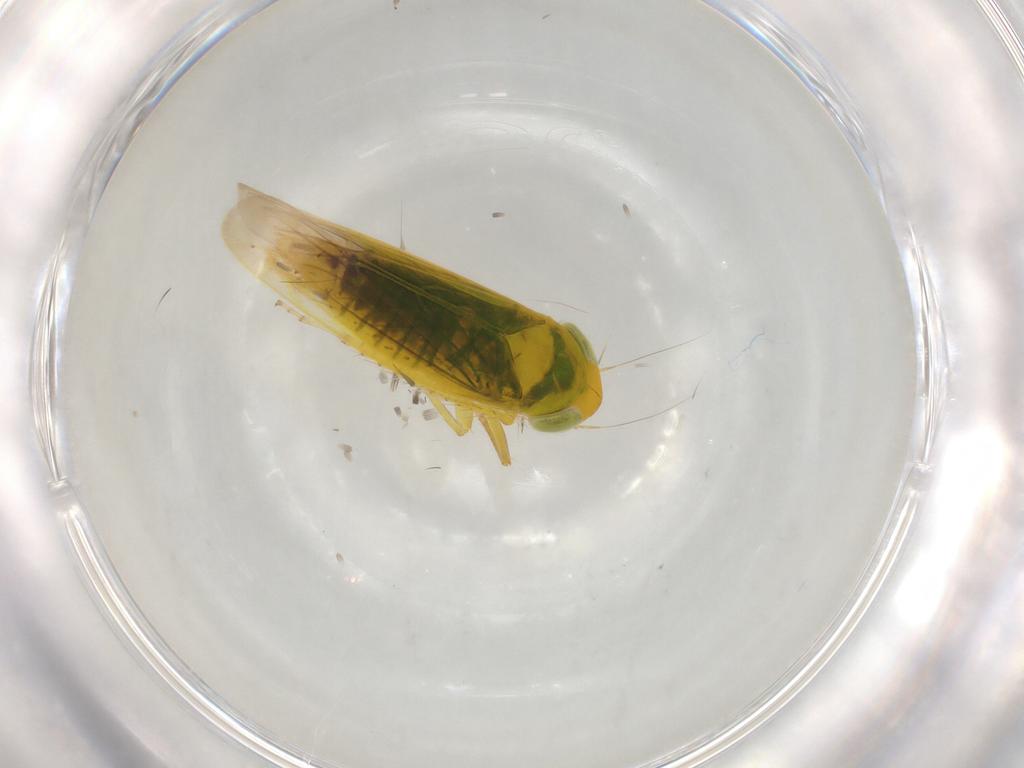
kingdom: Animalia
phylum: Arthropoda
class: Insecta
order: Hemiptera
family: Cicadellidae
